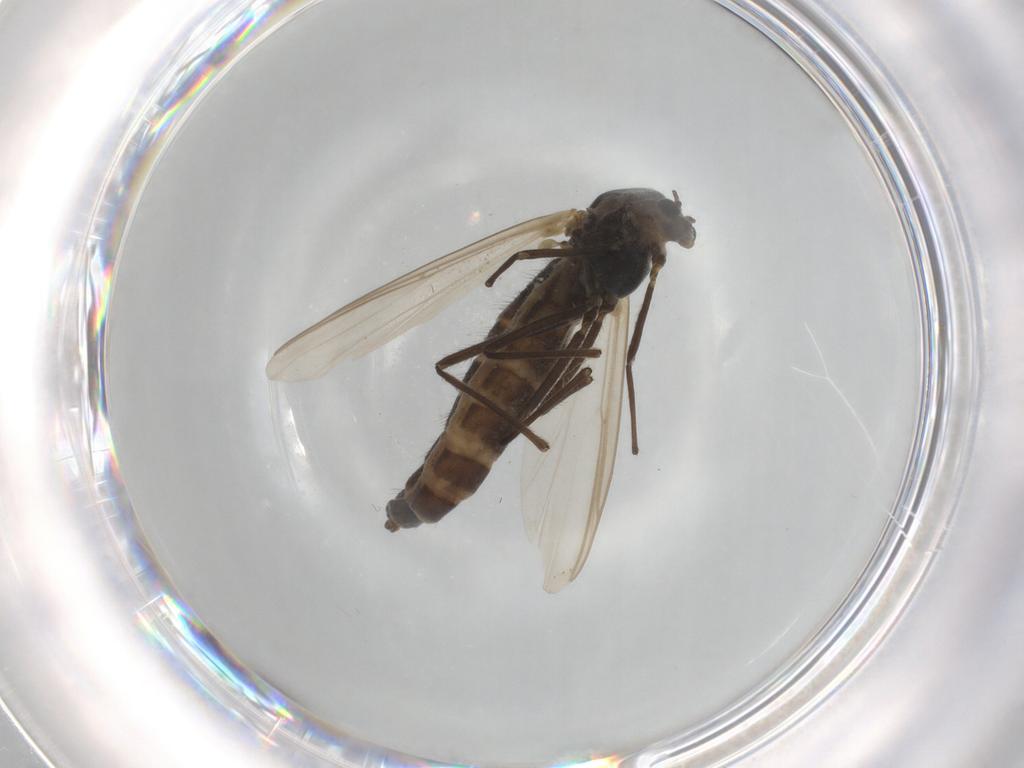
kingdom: Animalia
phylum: Arthropoda
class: Insecta
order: Diptera
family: Chironomidae
